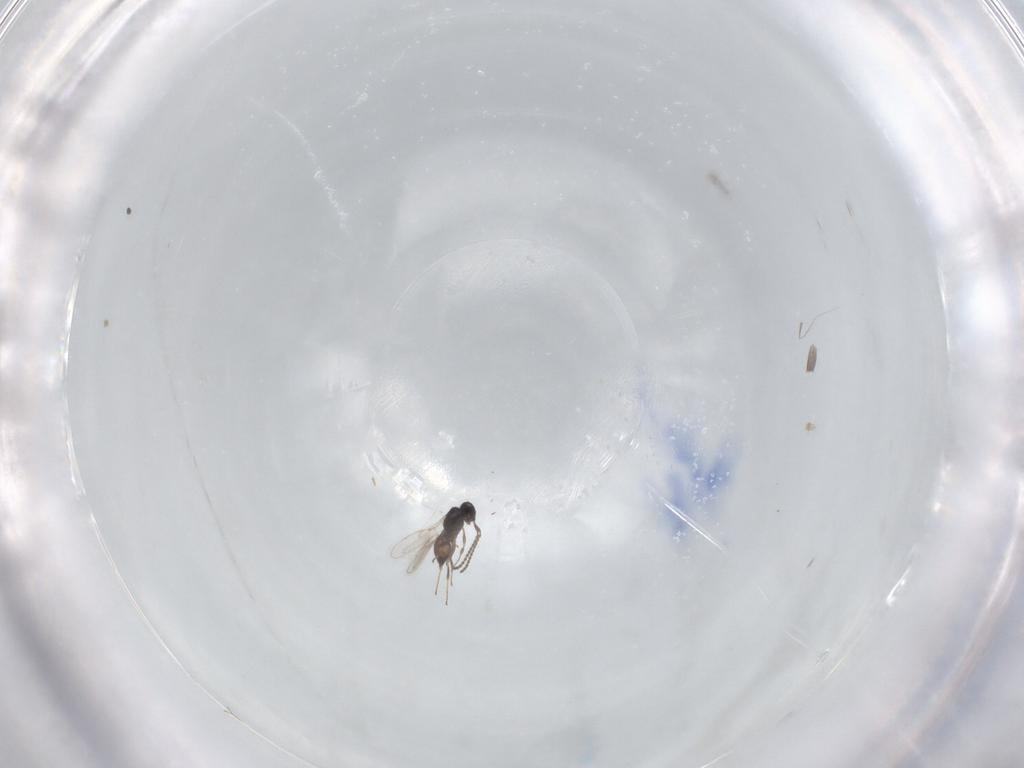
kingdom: Animalia
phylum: Arthropoda
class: Insecta
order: Hymenoptera
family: Scelionidae
